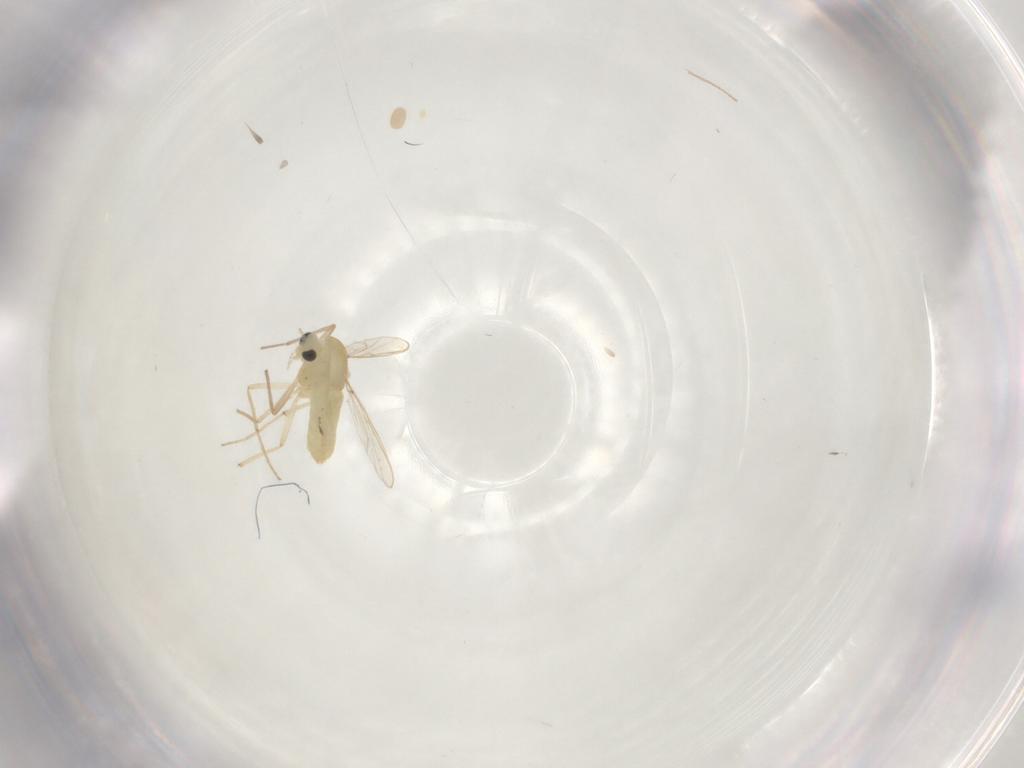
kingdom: Animalia
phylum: Arthropoda
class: Insecta
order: Diptera
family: Chironomidae
